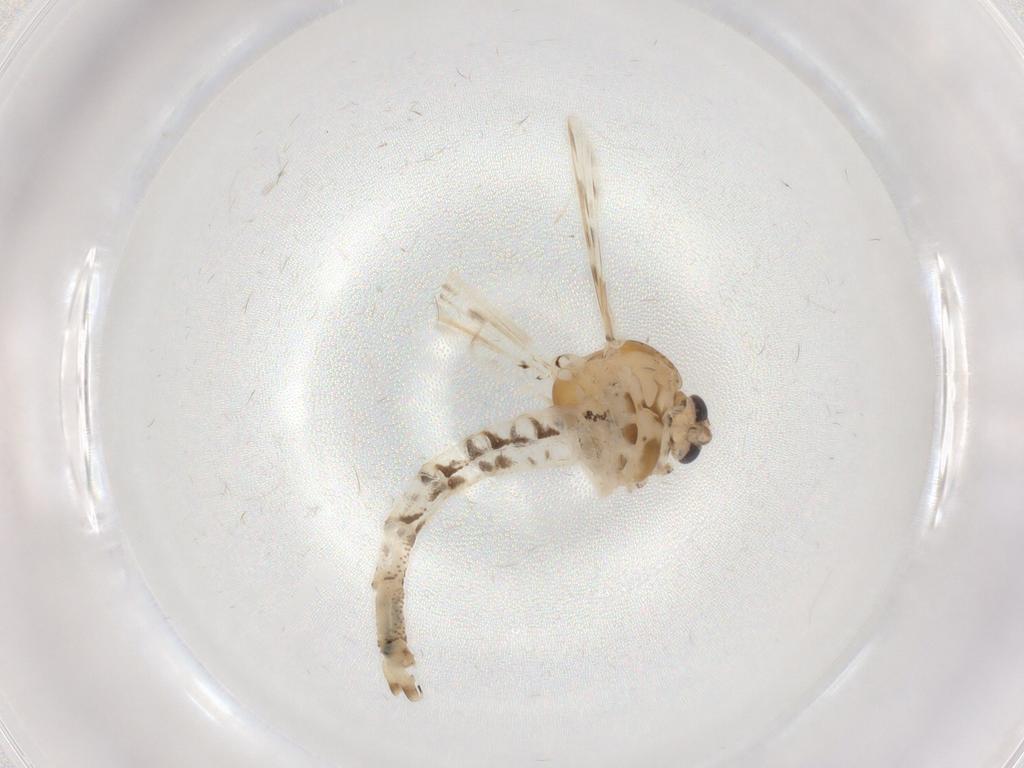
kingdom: Animalia
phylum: Arthropoda
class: Insecta
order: Diptera
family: Chaoboridae
